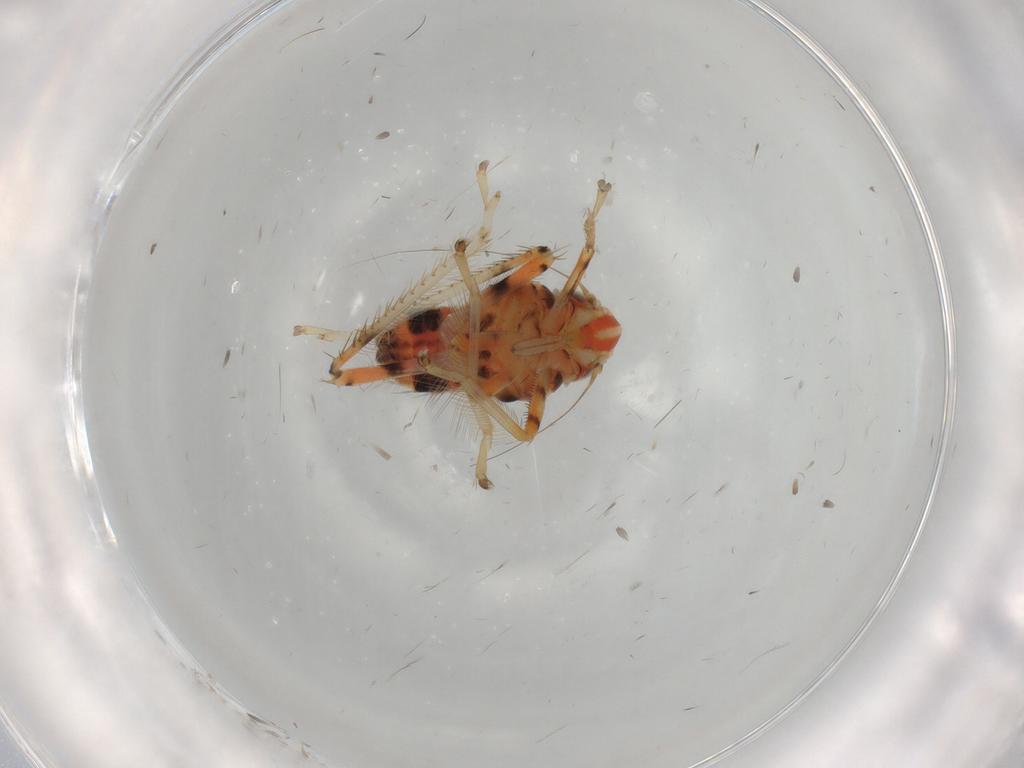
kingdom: Animalia
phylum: Arthropoda
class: Insecta
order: Hemiptera
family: Cicadellidae
